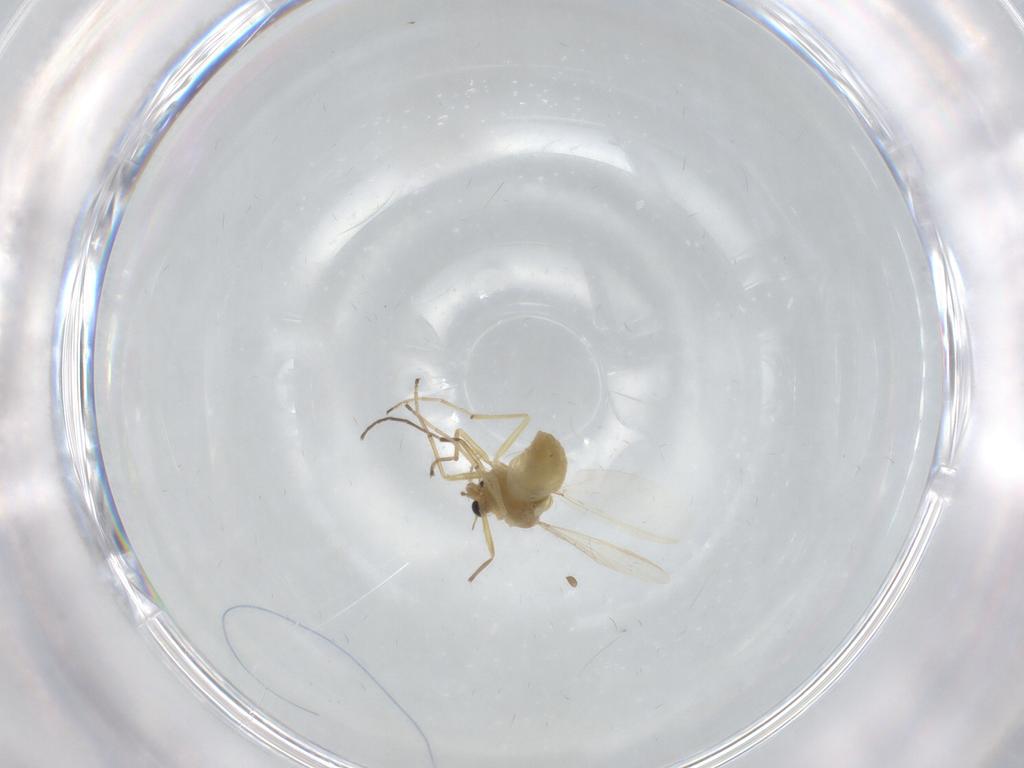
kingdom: Animalia
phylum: Arthropoda
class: Insecta
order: Diptera
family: Chironomidae
